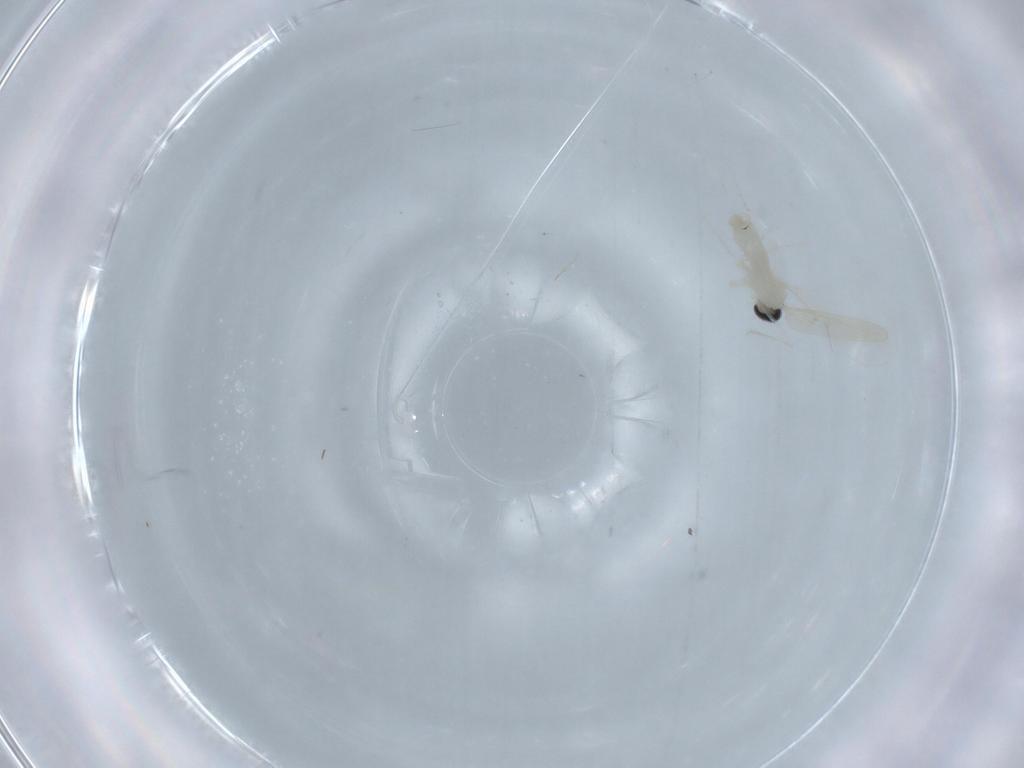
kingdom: Animalia
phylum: Arthropoda
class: Insecta
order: Diptera
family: Cecidomyiidae
